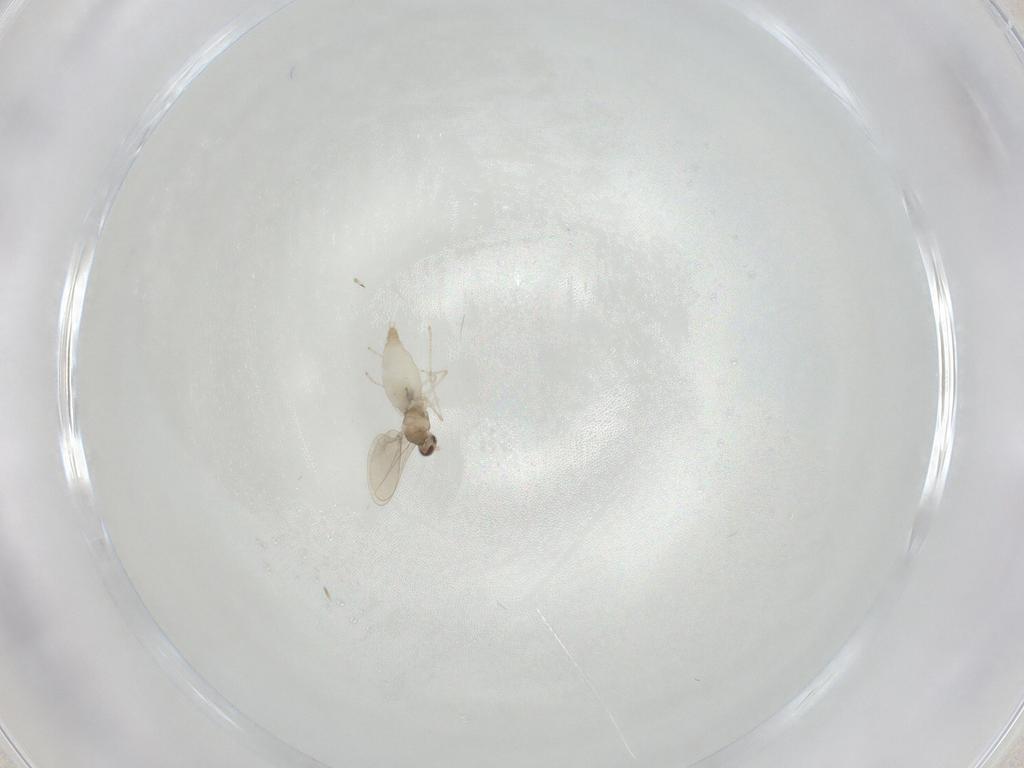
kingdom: Animalia
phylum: Arthropoda
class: Insecta
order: Diptera
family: Cecidomyiidae
